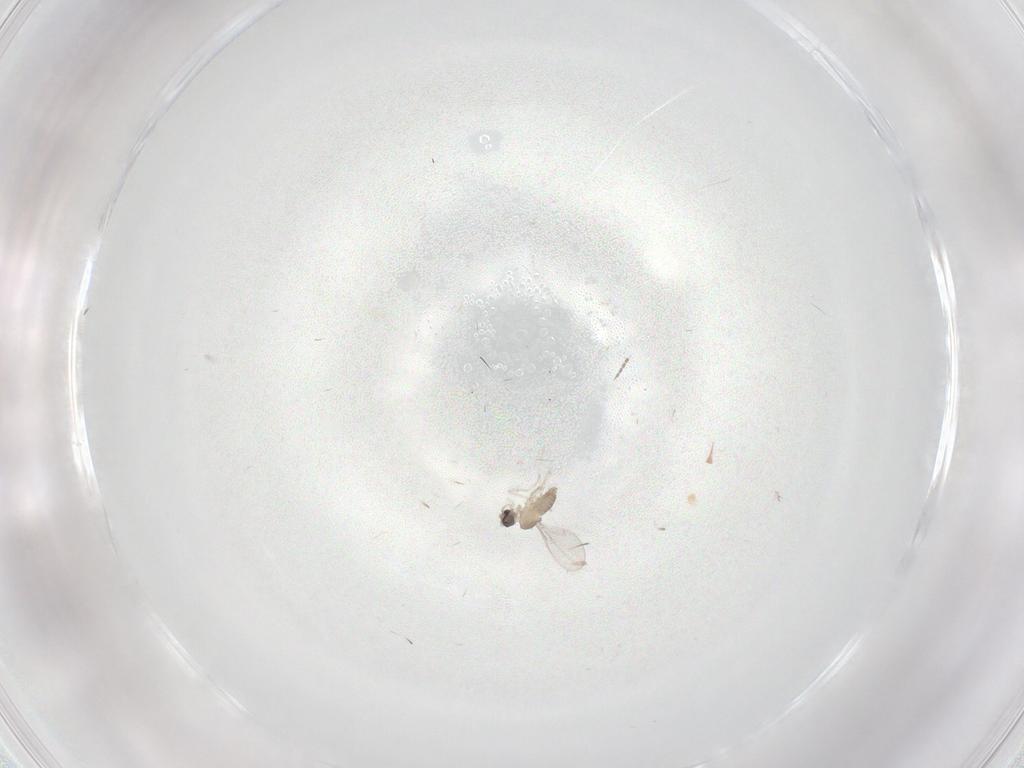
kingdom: Animalia
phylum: Arthropoda
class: Insecta
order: Diptera
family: Cecidomyiidae
